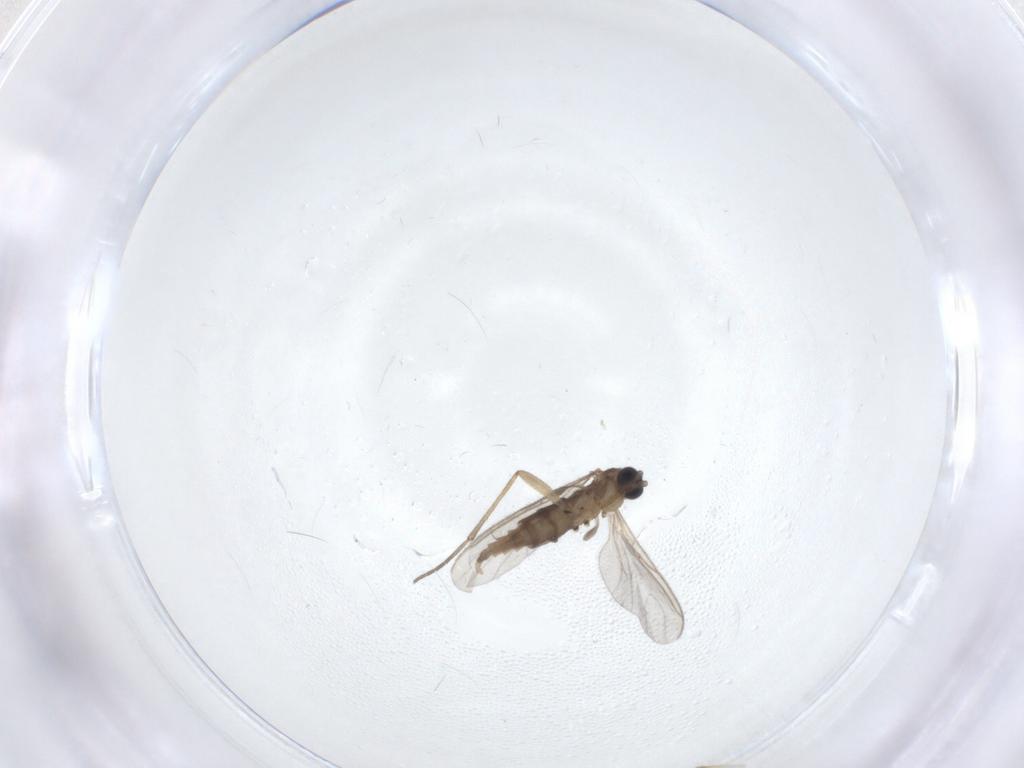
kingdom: Animalia
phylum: Arthropoda
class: Insecta
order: Diptera
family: Chironomidae
